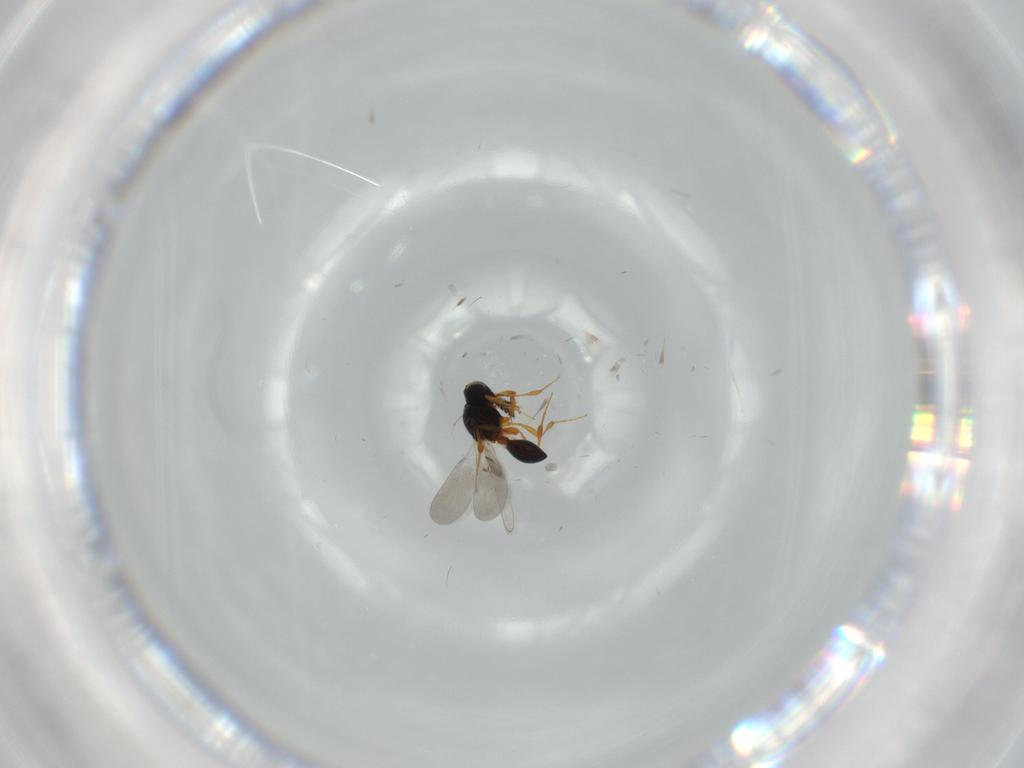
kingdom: Animalia
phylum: Arthropoda
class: Insecta
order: Hymenoptera
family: Platygastridae
